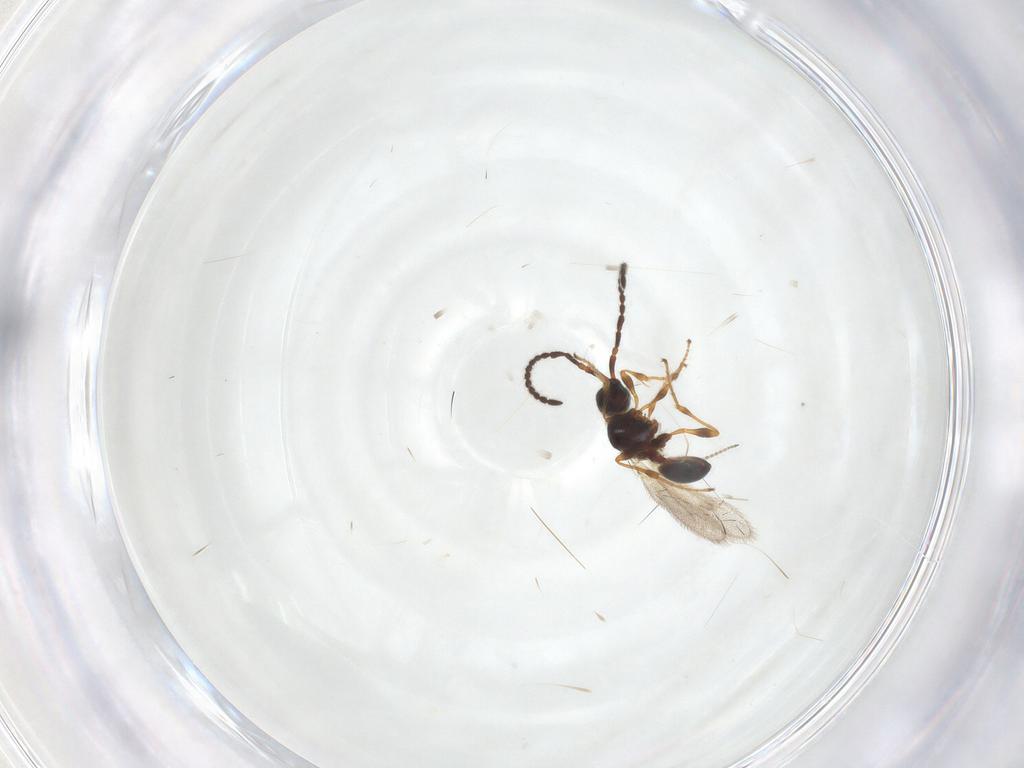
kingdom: Animalia
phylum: Arthropoda
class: Insecta
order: Hymenoptera
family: Diapriidae
